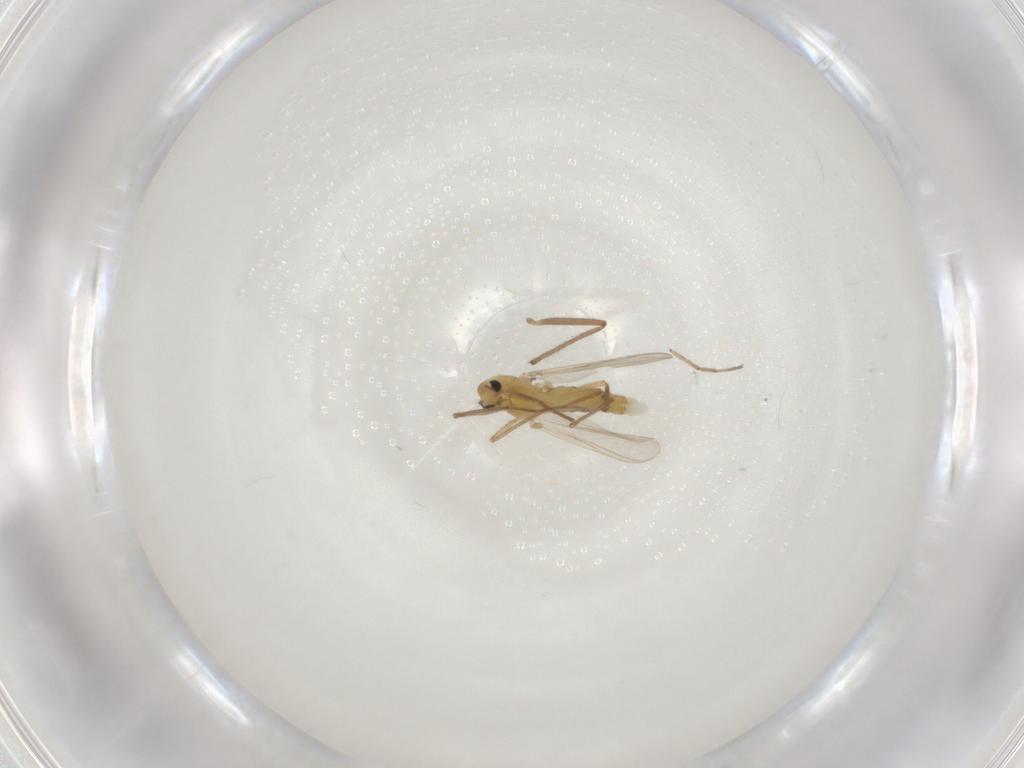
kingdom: Animalia
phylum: Arthropoda
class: Insecta
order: Diptera
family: Chironomidae
